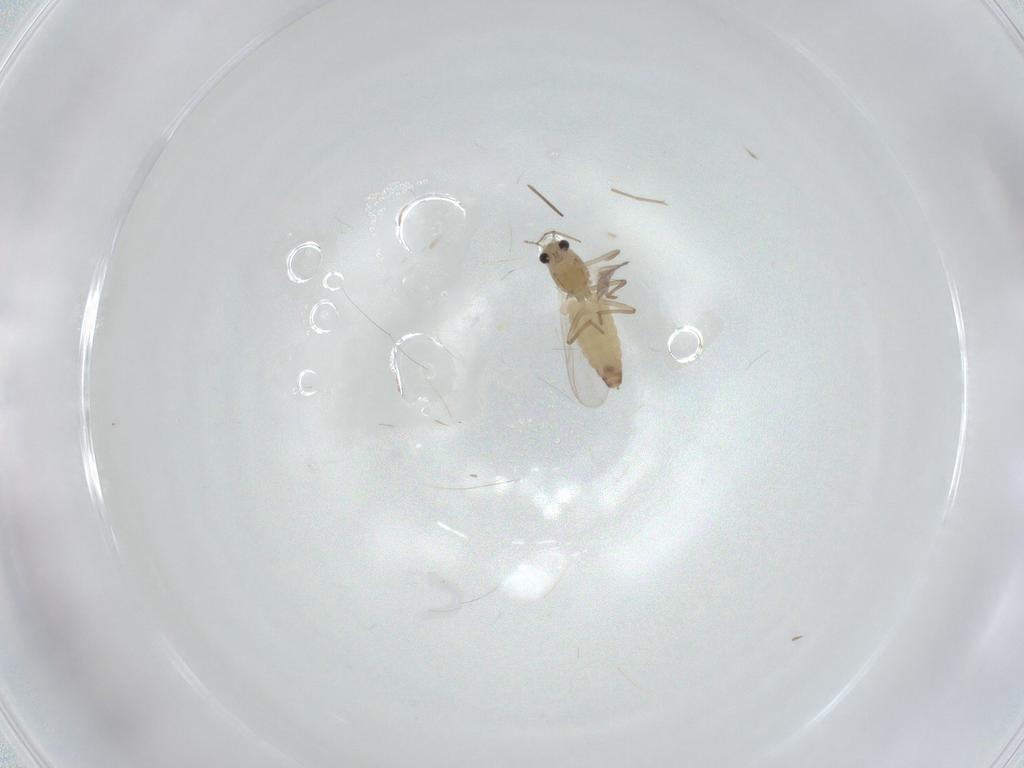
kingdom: Animalia
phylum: Arthropoda
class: Insecta
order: Diptera
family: Chironomidae
